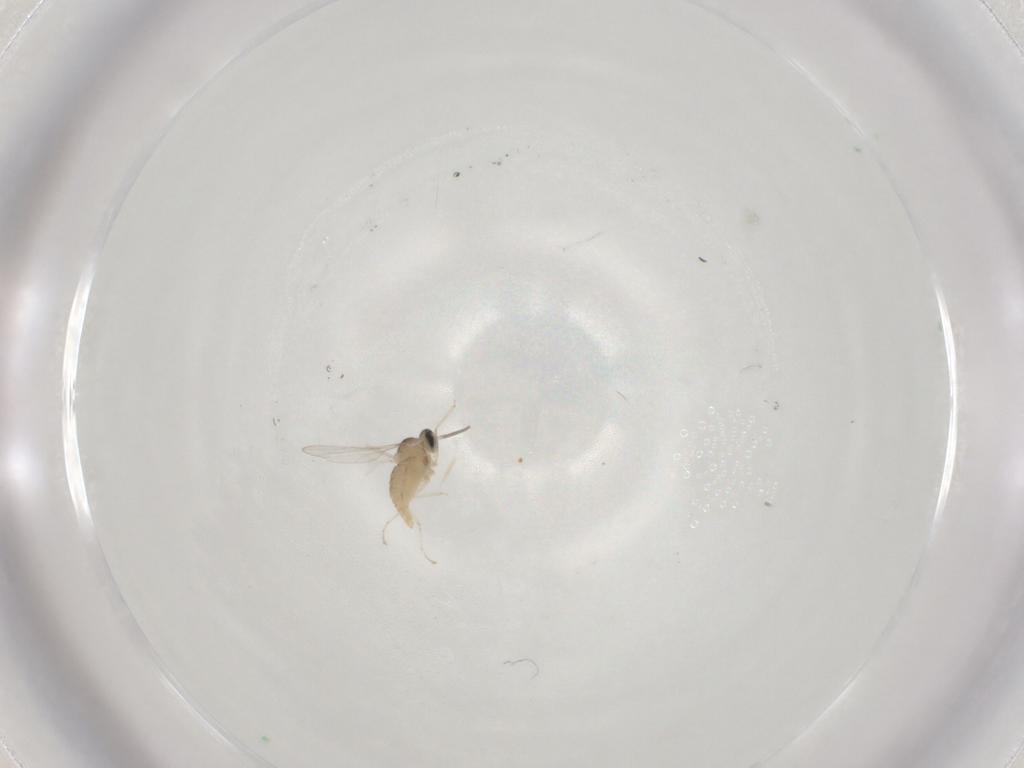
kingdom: Animalia
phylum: Arthropoda
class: Insecta
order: Diptera
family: Cecidomyiidae
